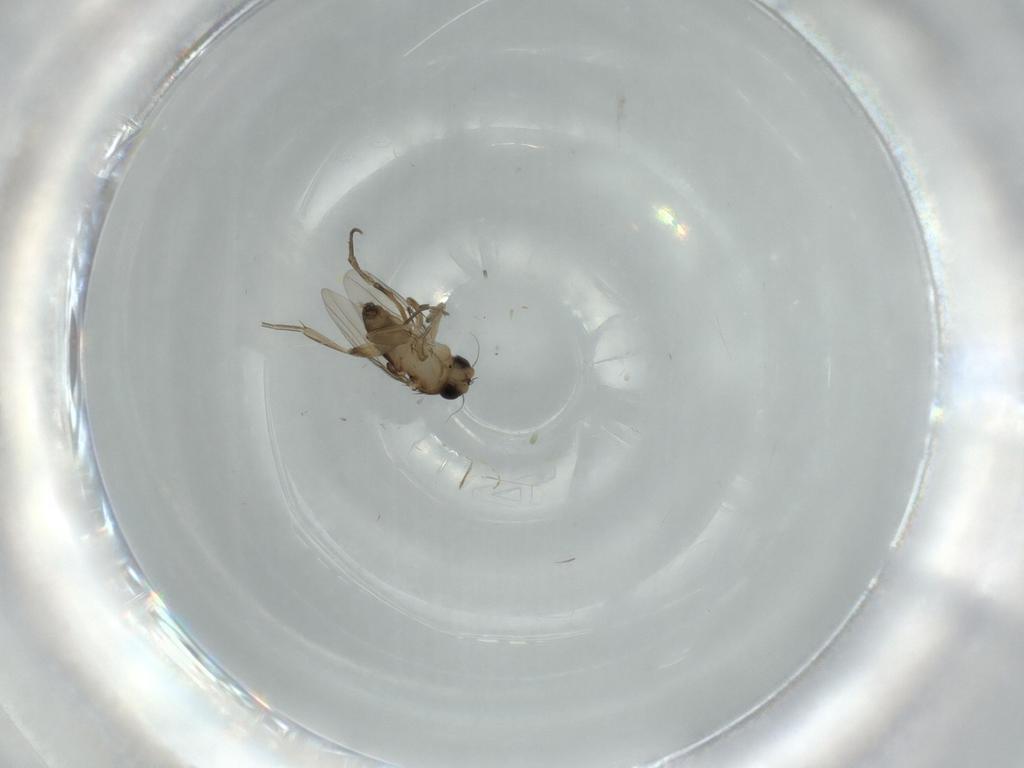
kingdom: Animalia
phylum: Arthropoda
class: Insecta
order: Diptera
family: Phoridae
